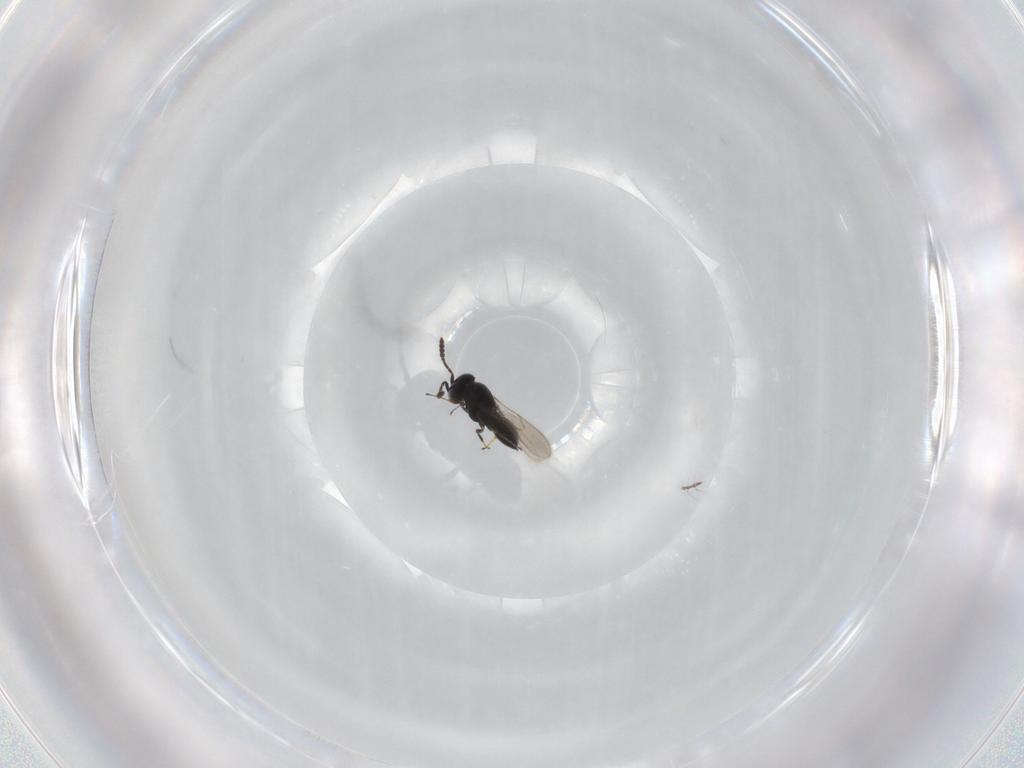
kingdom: Animalia
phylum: Arthropoda
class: Insecta
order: Hymenoptera
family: Scelionidae
